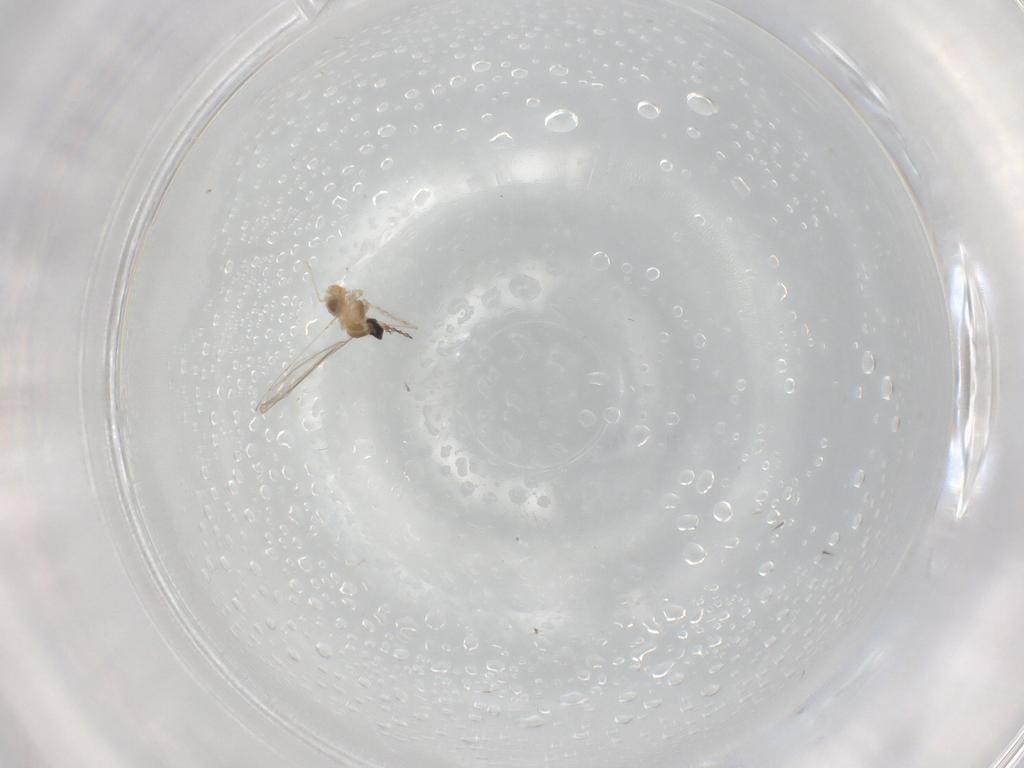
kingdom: Animalia
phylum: Arthropoda
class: Insecta
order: Diptera
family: Cecidomyiidae
